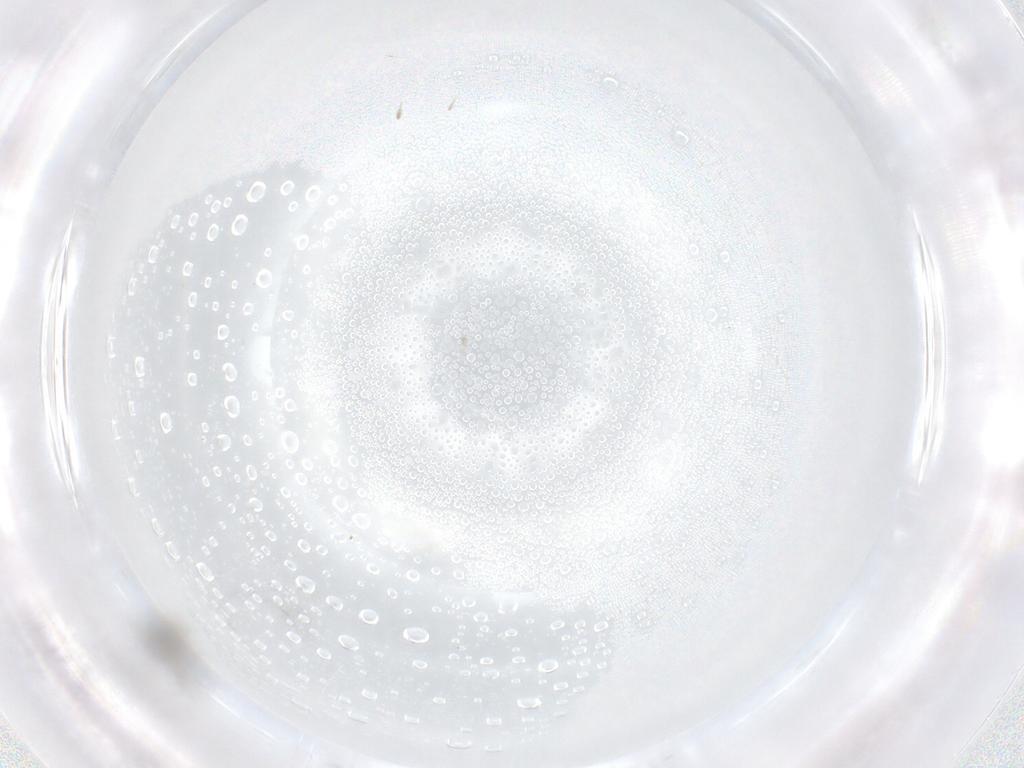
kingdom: Animalia
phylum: Arthropoda
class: Insecta
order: Diptera
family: Cecidomyiidae
